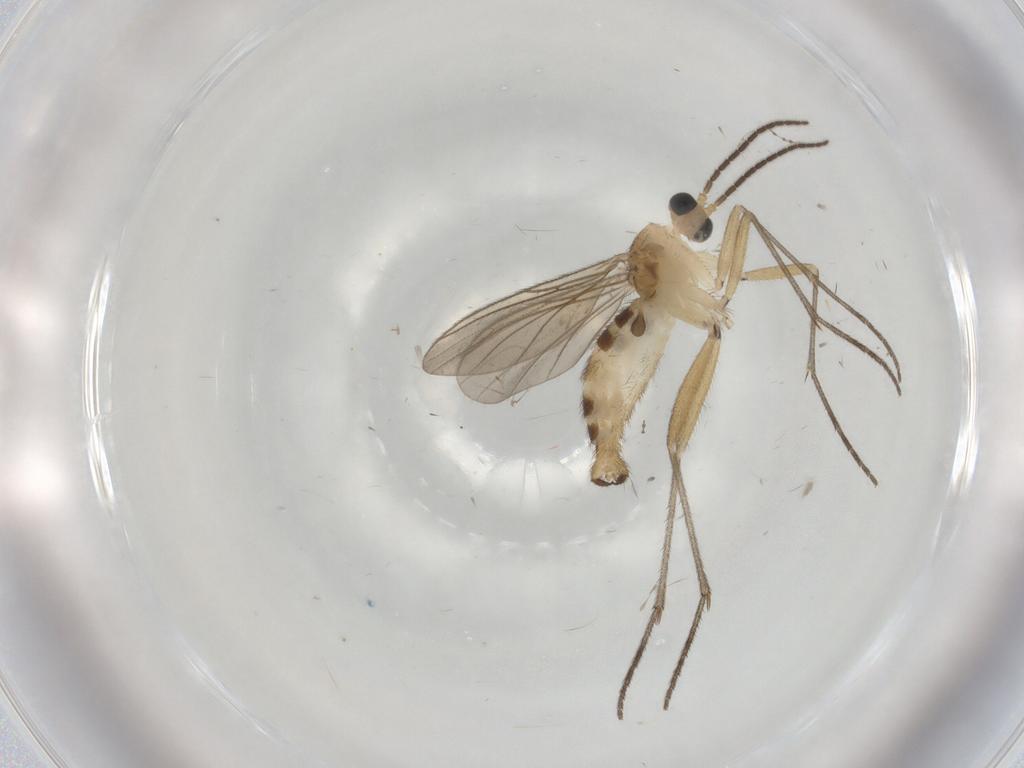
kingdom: Animalia
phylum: Arthropoda
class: Insecta
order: Diptera
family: Sciaridae
